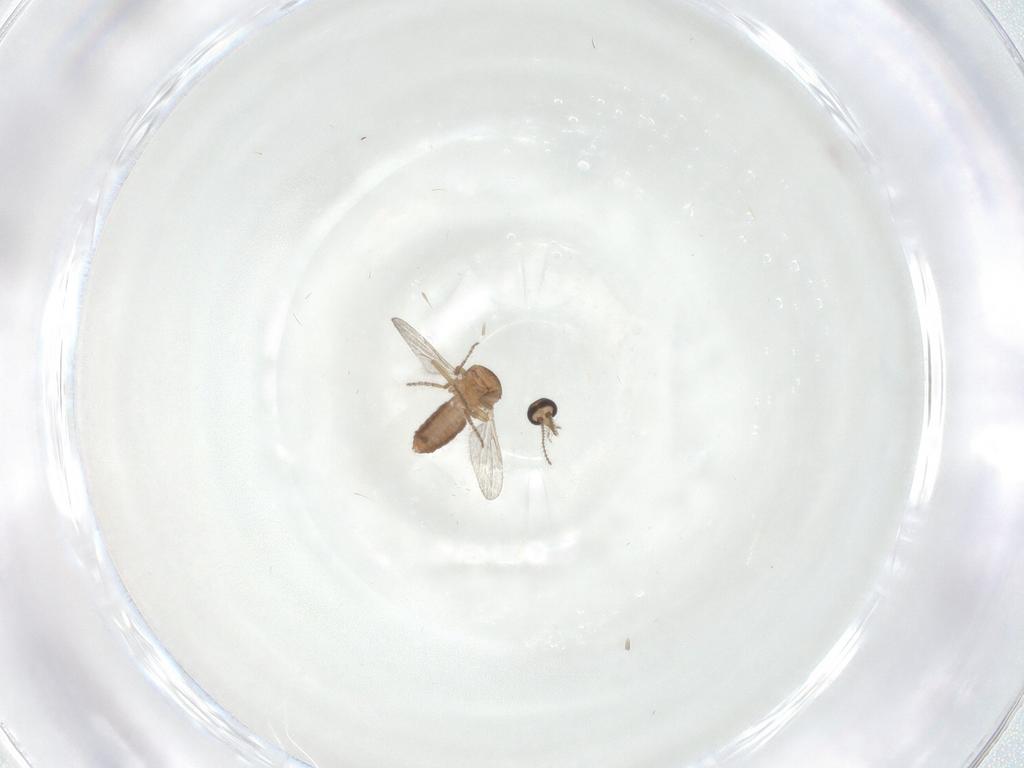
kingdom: Animalia
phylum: Arthropoda
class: Insecta
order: Diptera
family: Ceratopogonidae
